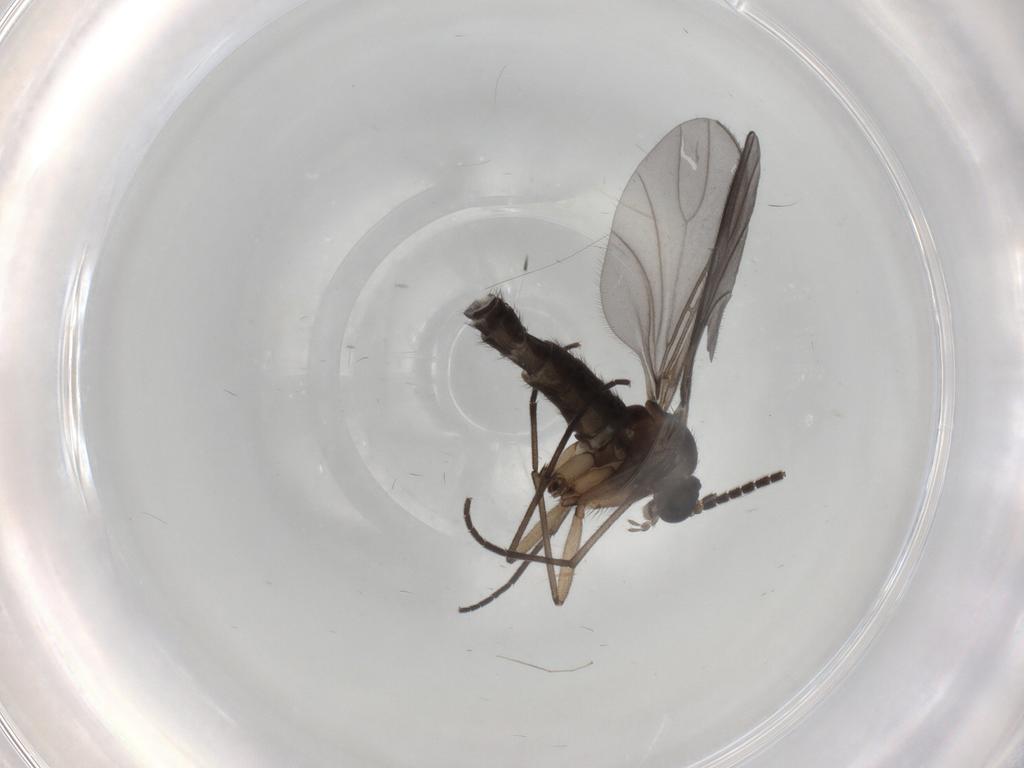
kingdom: Animalia
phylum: Arthropoda
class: Insecta
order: Diptera
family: Sciaridae
